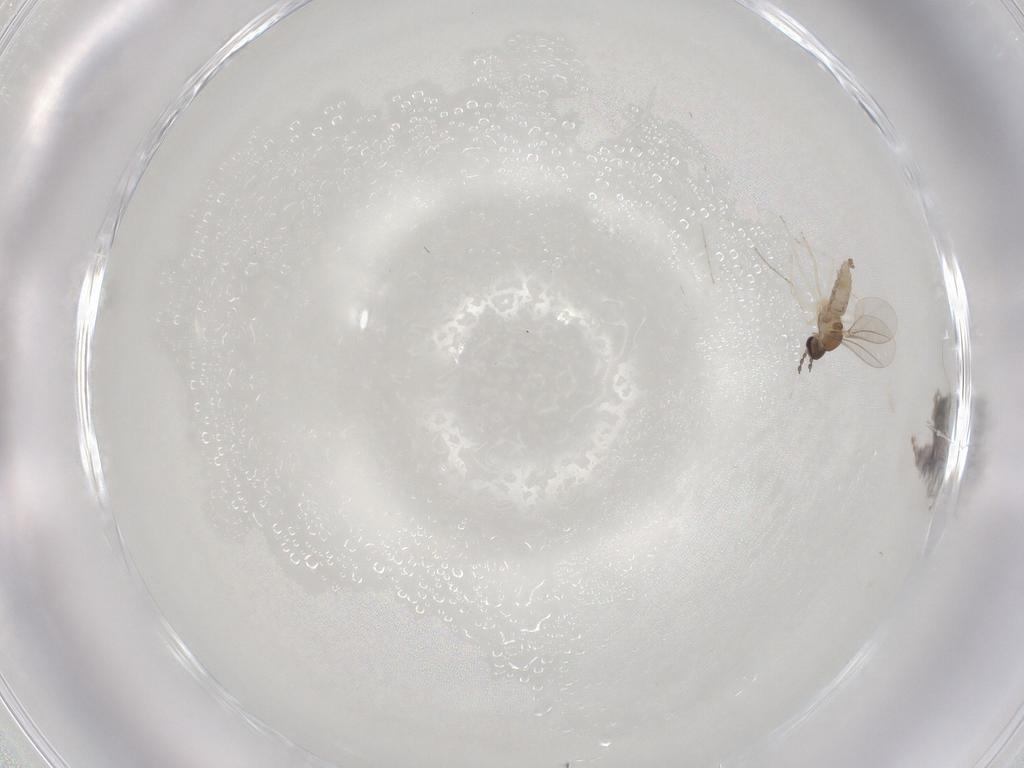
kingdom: Animalia
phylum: Arthropoda
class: Insecta
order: Diptera
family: Cecidomyiidae
